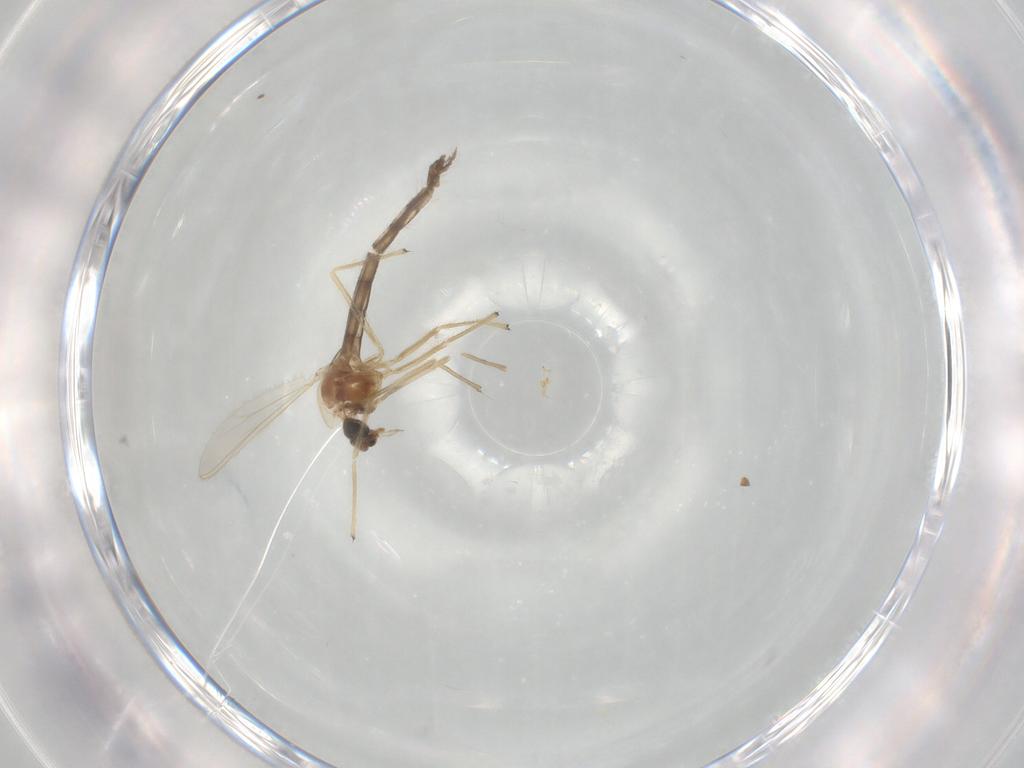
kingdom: Animalia
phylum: Arthropoda
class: Insecta
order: Diptera
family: Chironomidae
